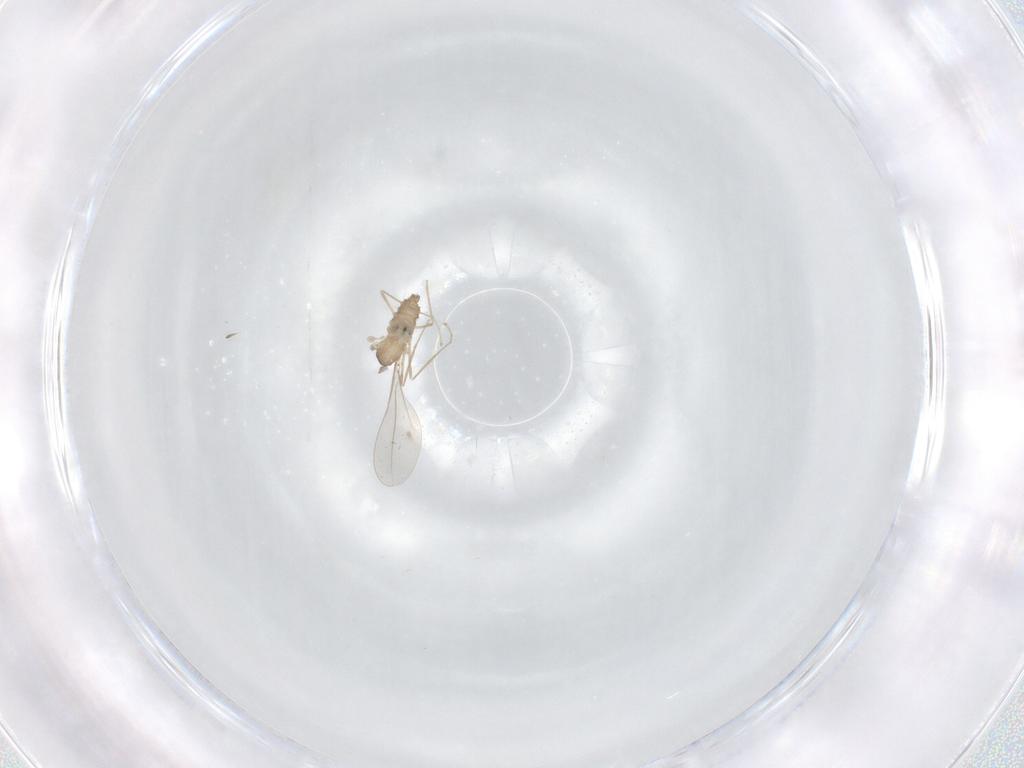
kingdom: Animalia
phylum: Arthropoda
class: Insecta
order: Diptera
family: Cecidomyiidae
